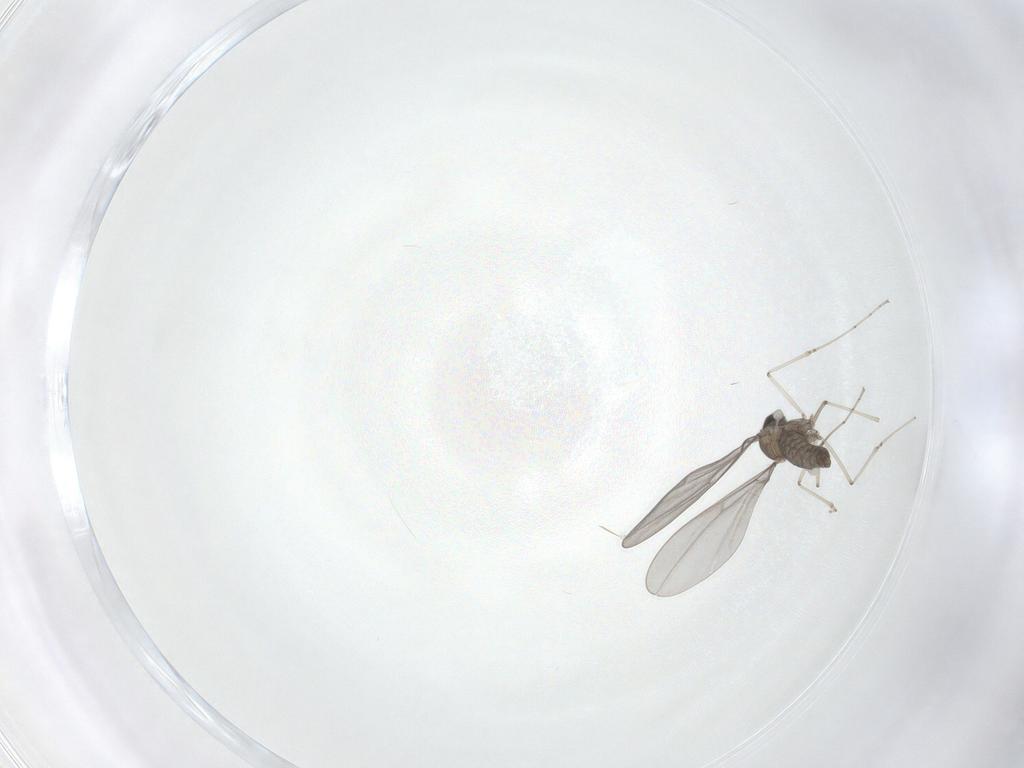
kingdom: Animalia
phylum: Arthropoda
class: Insecta
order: Diptera
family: Cecidomyiidae
